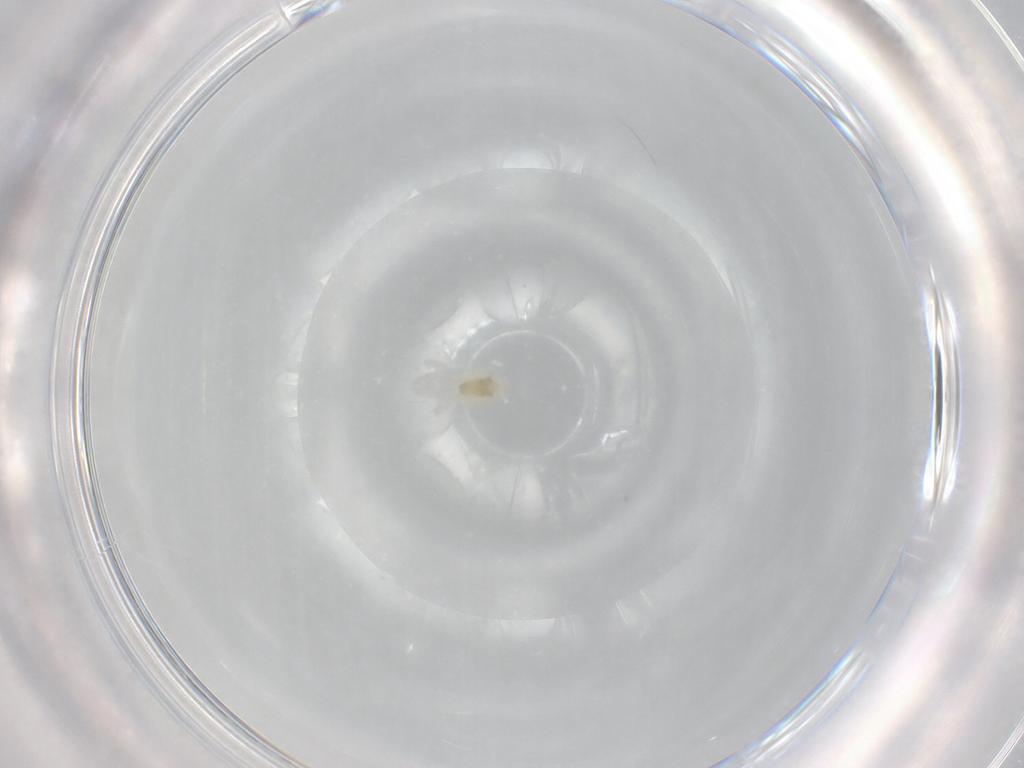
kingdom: Animalia
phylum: Arthropoda
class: Arachnida
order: Trombidiformes
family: Eupodidae
